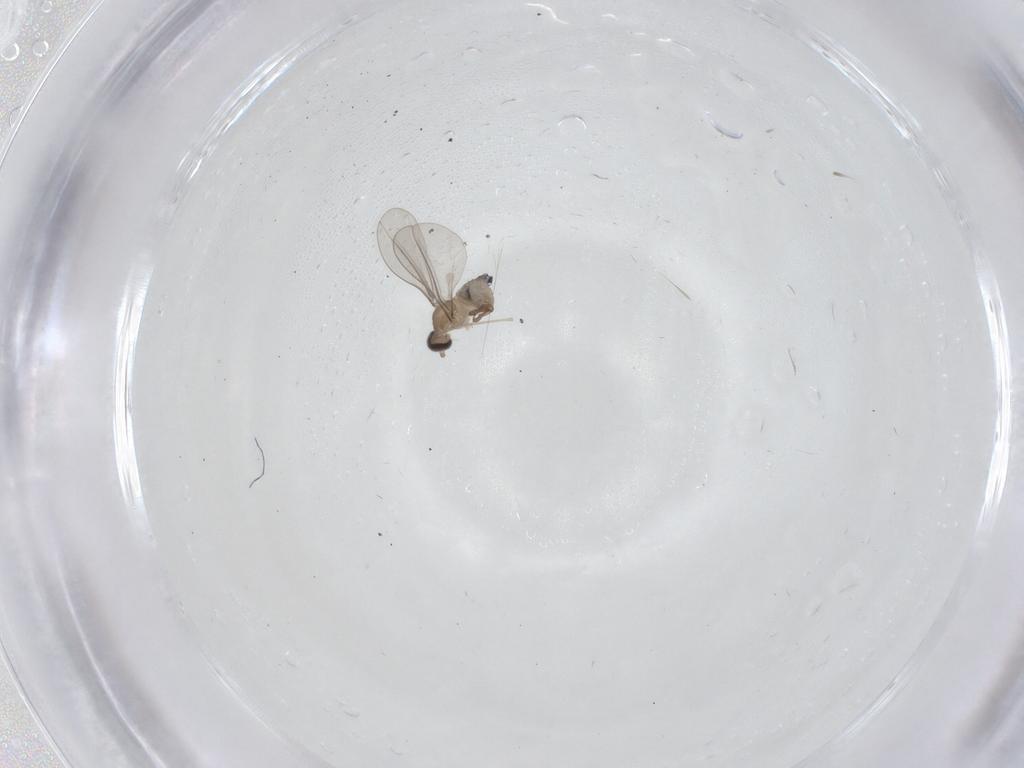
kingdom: Animalia
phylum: Arthropoda
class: Insecta
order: Diptera
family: Cecidomyiidae
